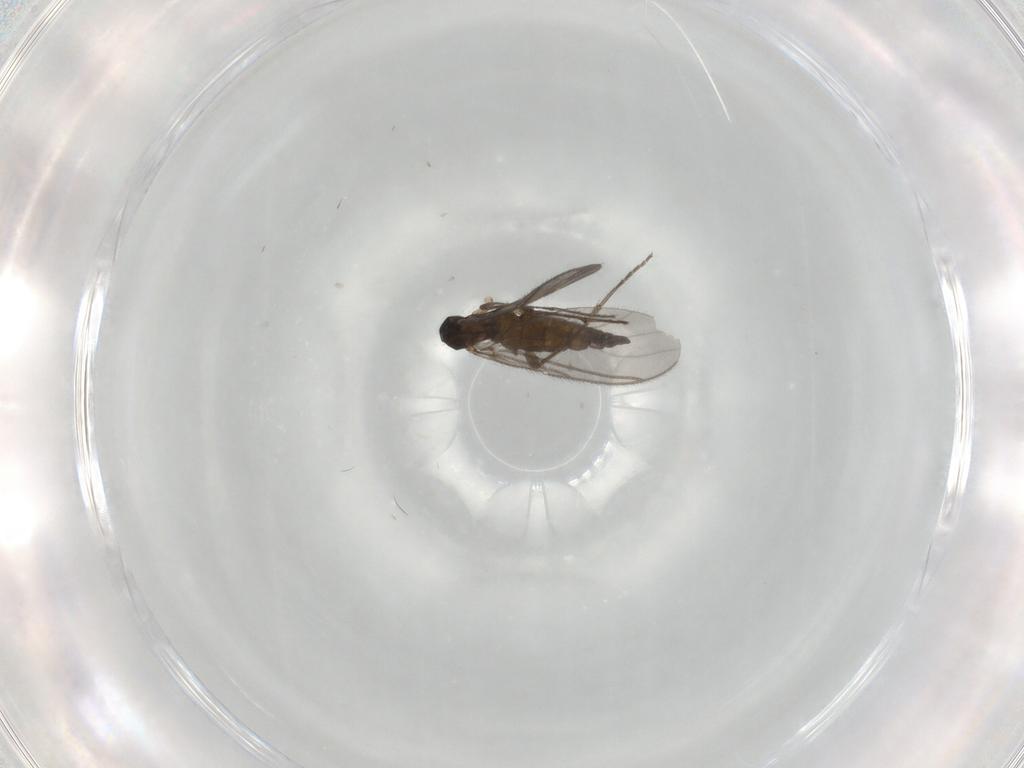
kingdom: Animalia
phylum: Arthropoda
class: Insecta
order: Diptera
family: Sciaridae
